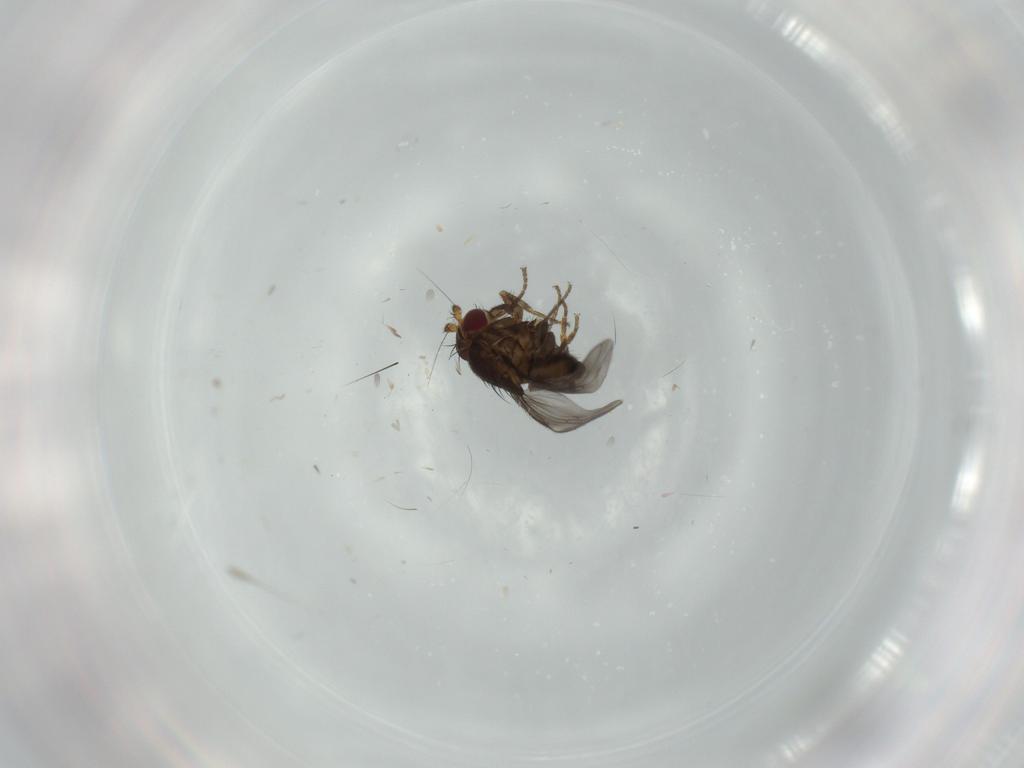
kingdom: Animalia
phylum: Arthropoda
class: Insecta
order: Diptera
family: Sphaeroceridae
